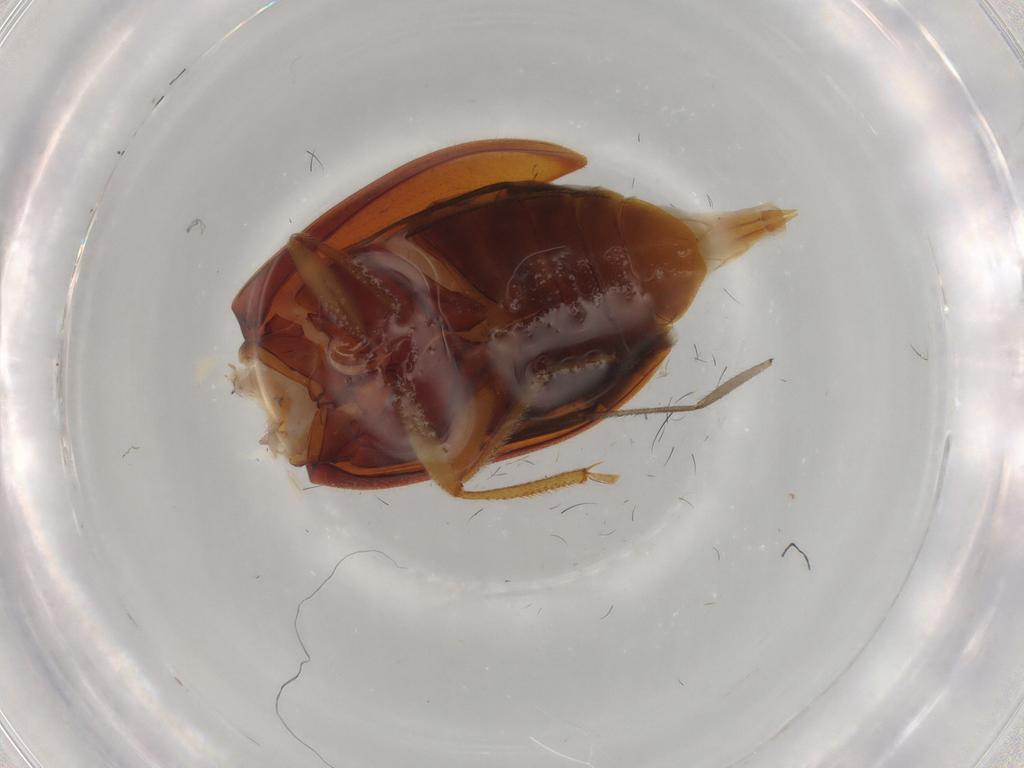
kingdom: Animalia
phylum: Arthropoda
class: Insecta
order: Coleoptera
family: Ptilodactylidae
